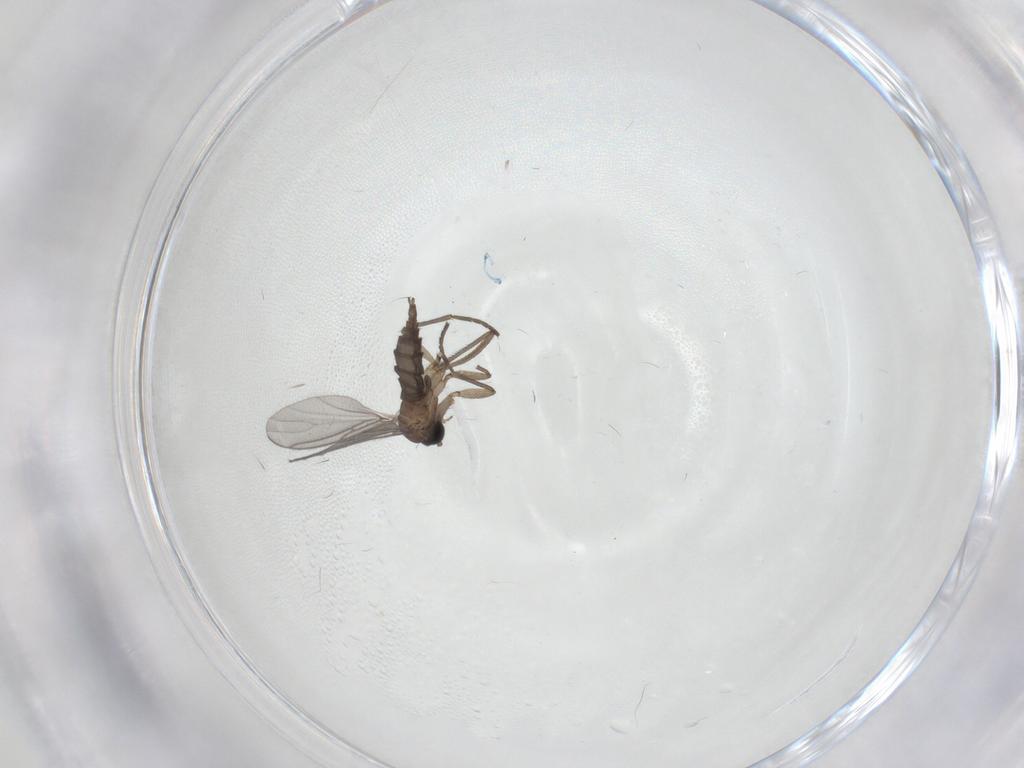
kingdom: Animalia
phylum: Arthropoda
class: Insecta
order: Diptera
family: Sciaridae
